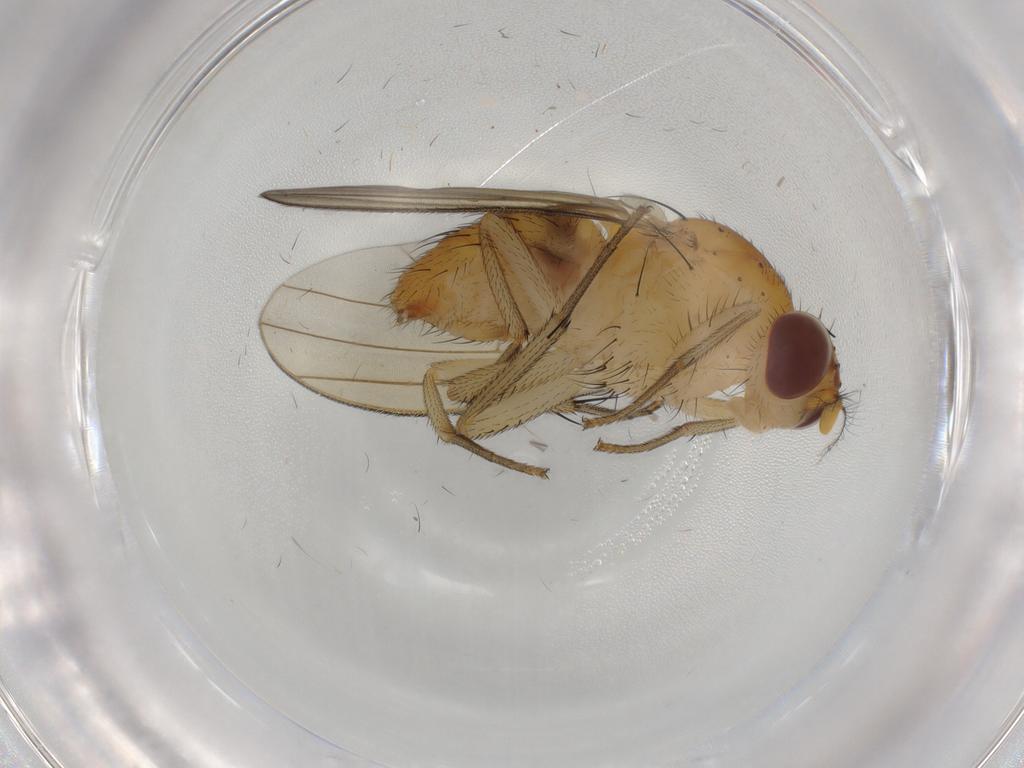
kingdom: Animalia
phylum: Arthropoda
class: Insecta
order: Diptera
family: Lauxaniidae
